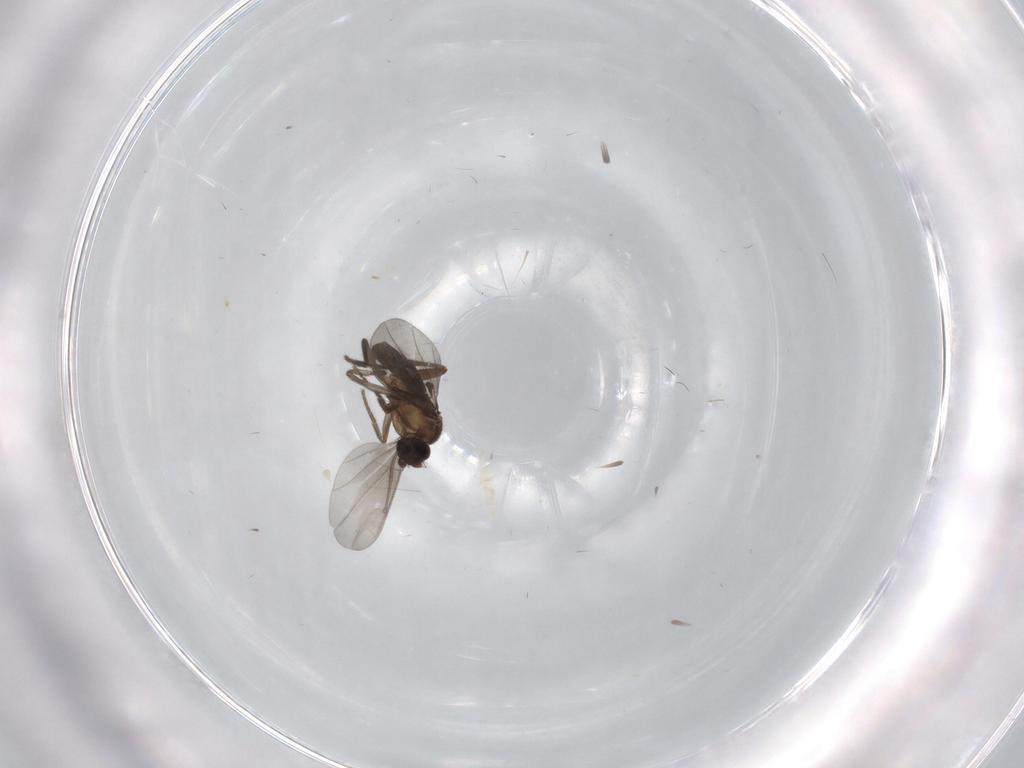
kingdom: Animalia
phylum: Arthropoda
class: Insecta
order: Diptera
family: Phoridae
